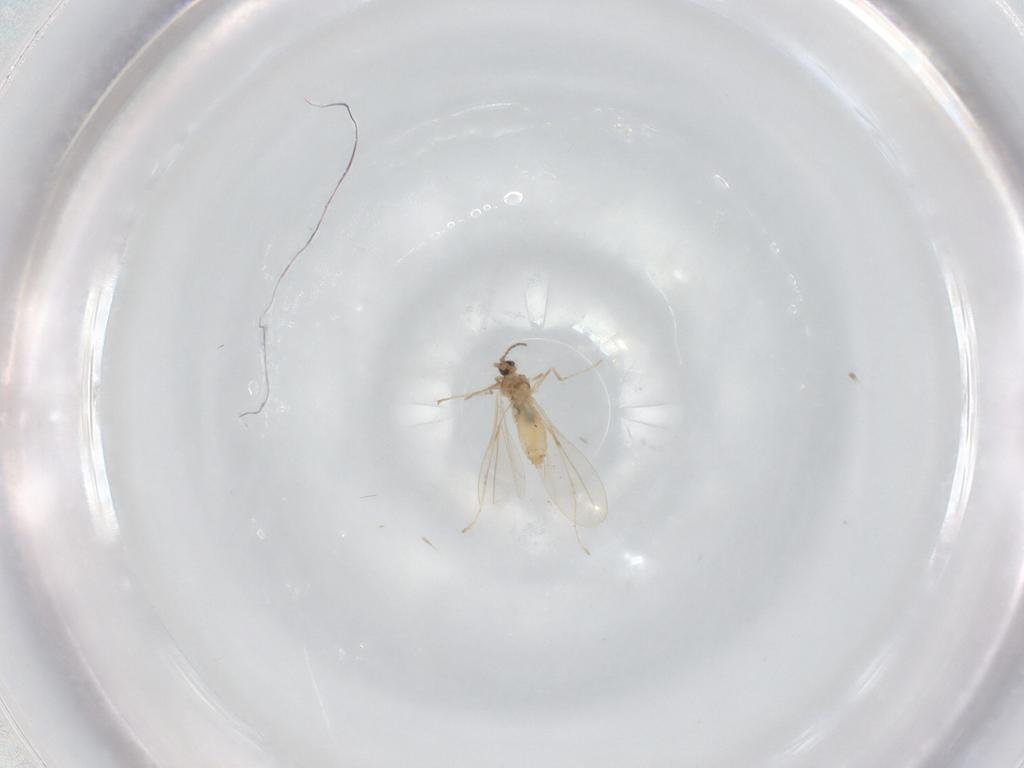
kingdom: Animalia
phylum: Arthropoda
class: Insecta
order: Diptera
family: Cecidomyiidae
